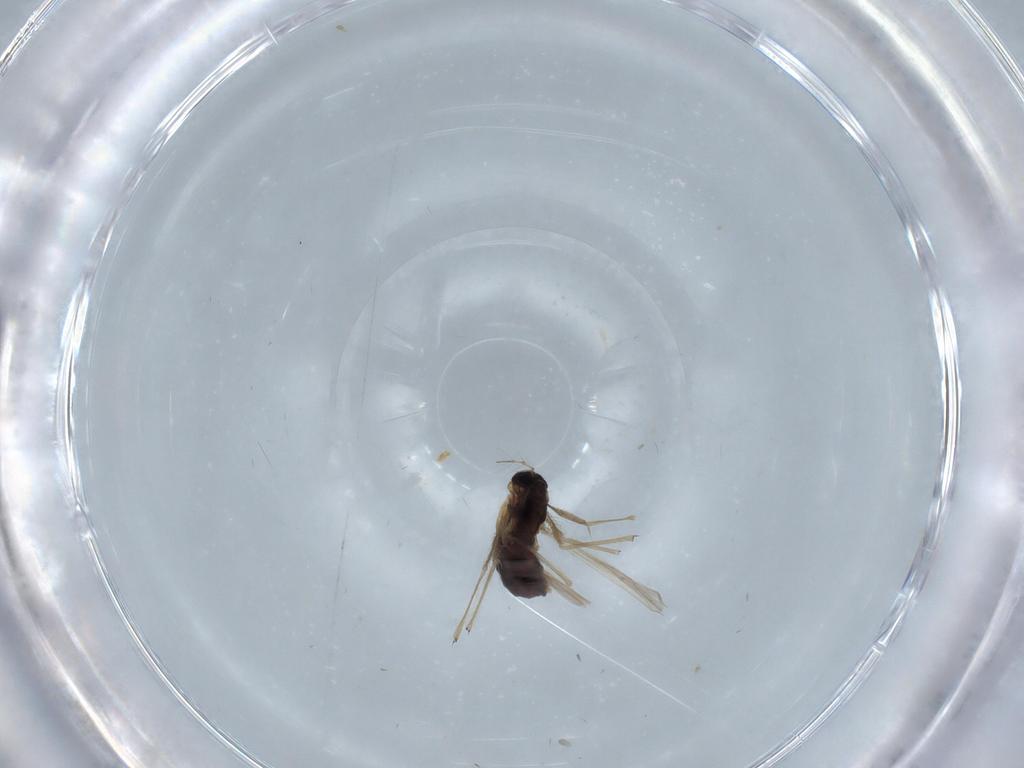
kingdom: Animalia
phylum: Arthropoda
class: Insecta
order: Diptera
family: Chironomidae
